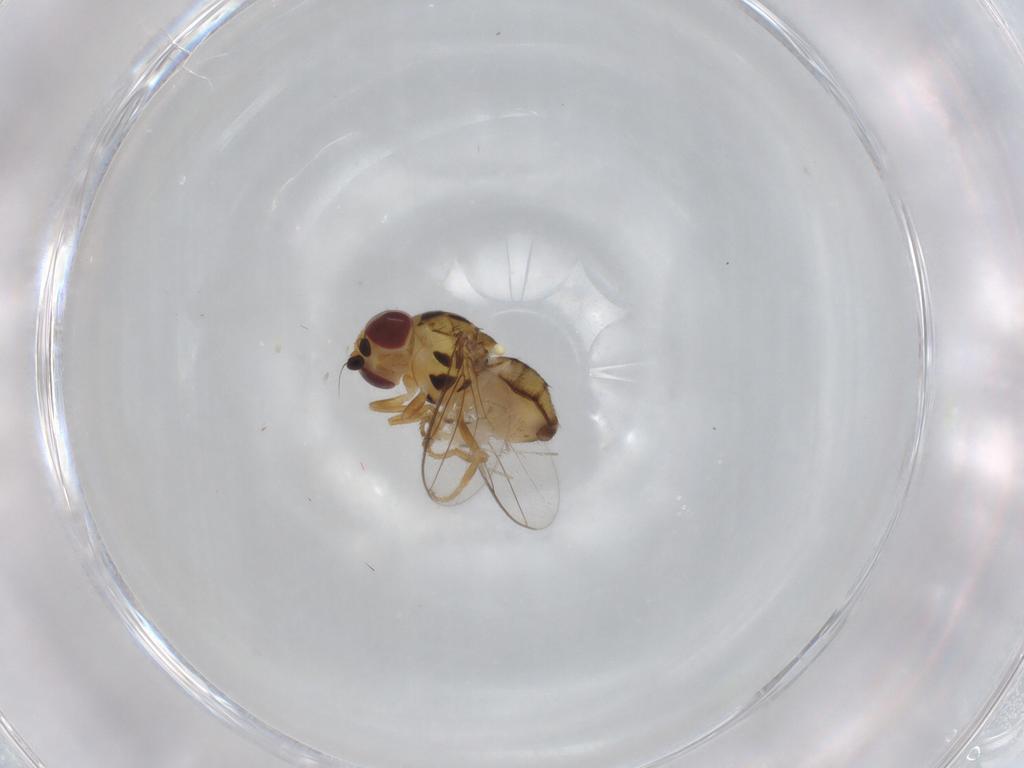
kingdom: Animalia
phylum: Arthropoda
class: Insecta
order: Diptera
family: Chloropidae
